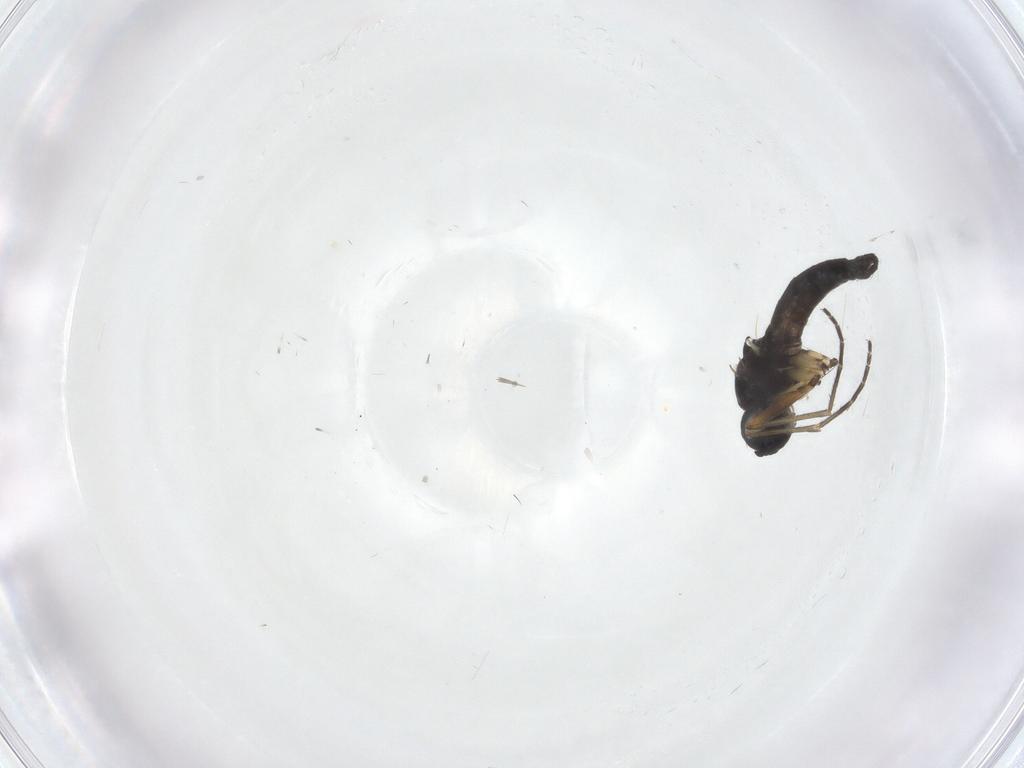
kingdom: Animalia
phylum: Arthropoda
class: Insecta
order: Diptera
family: Sciaridae
